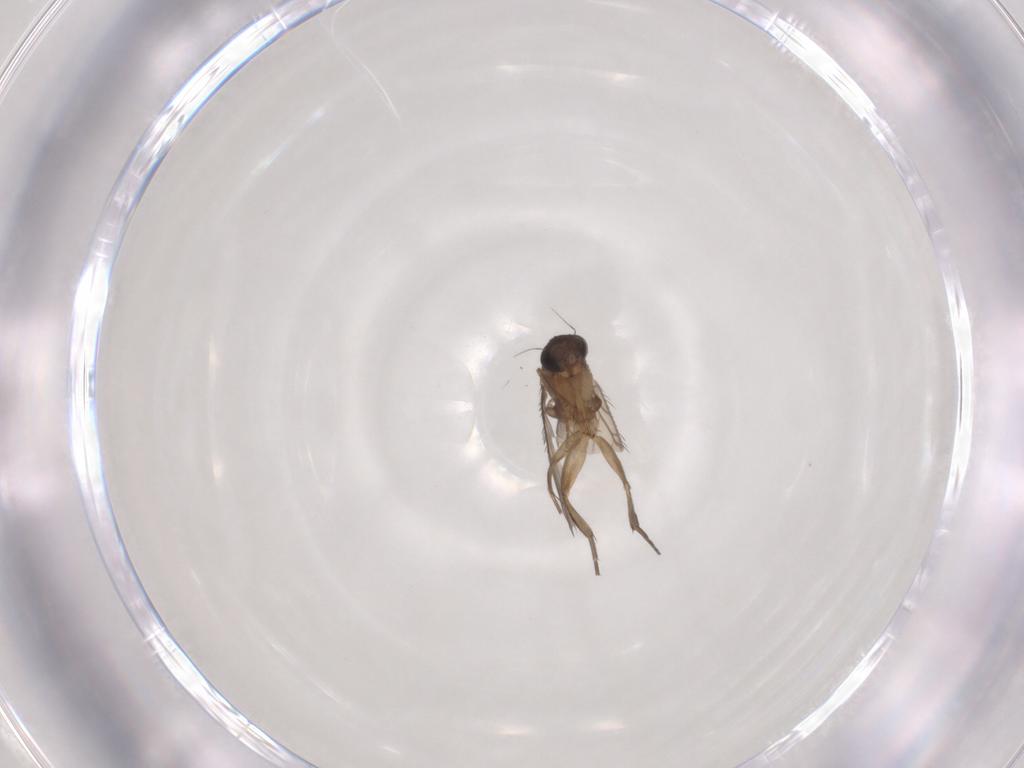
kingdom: Animalia
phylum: Arthropoda
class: Insecta
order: Diptera
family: Phoridae
